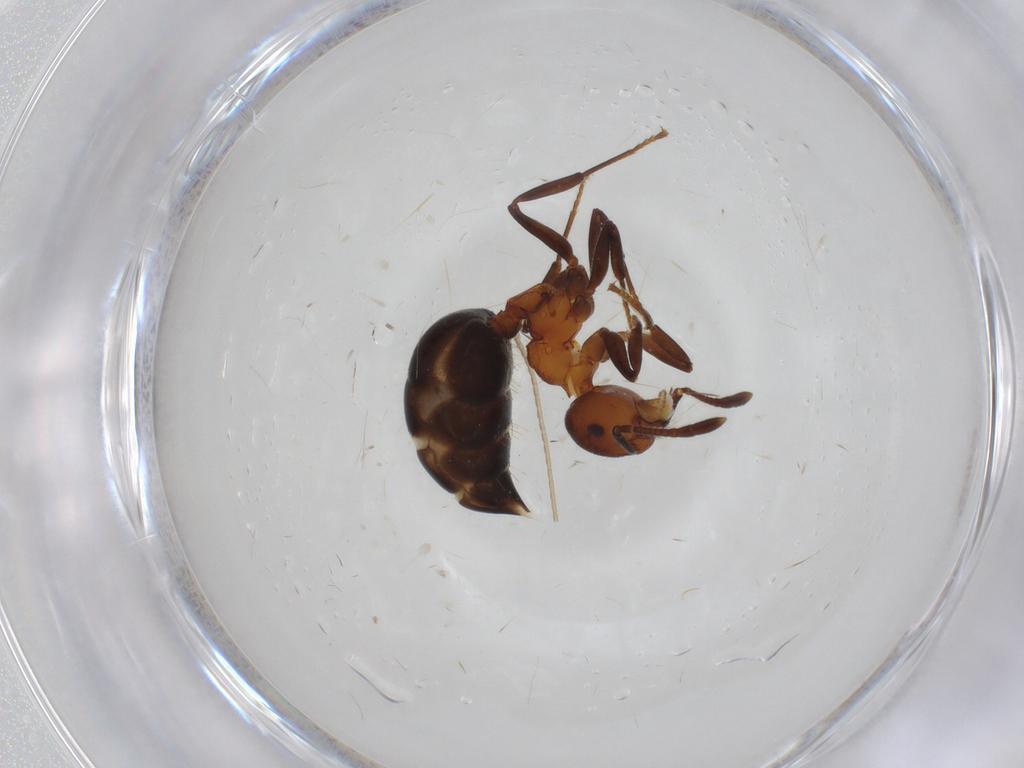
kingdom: Animalia
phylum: Arthropoda
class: Insecta
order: Hymenoptera
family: Formicidae
